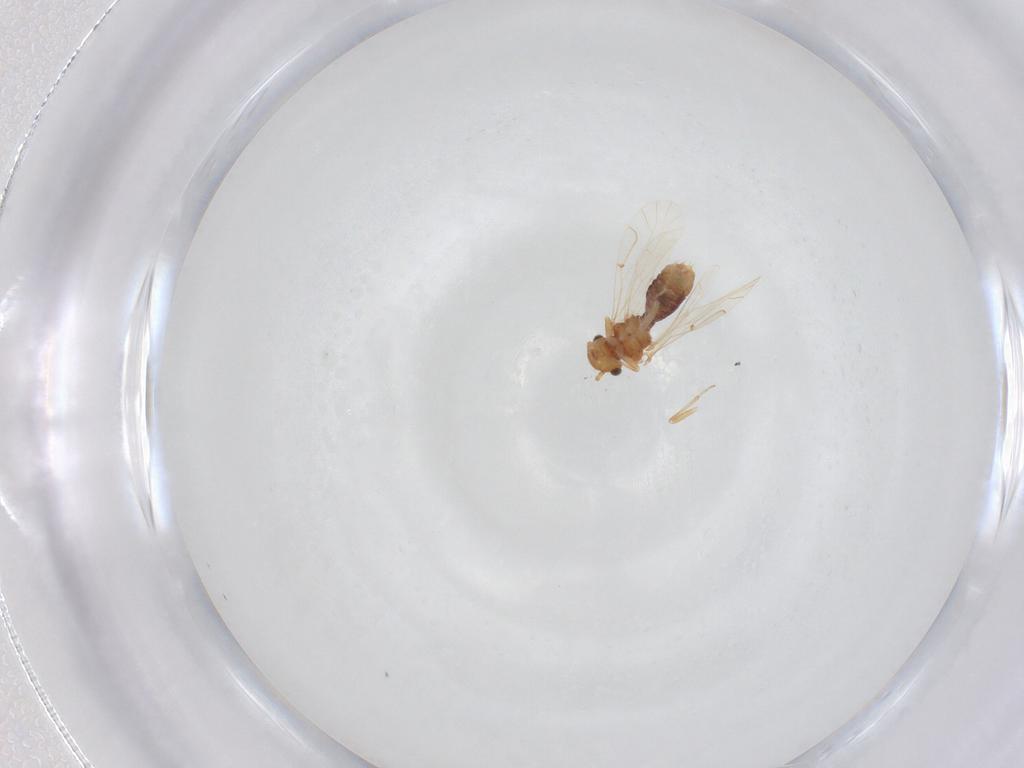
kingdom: Animalia
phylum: Arthropoda
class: Insecta
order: Psocodea
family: Lachesillidae
